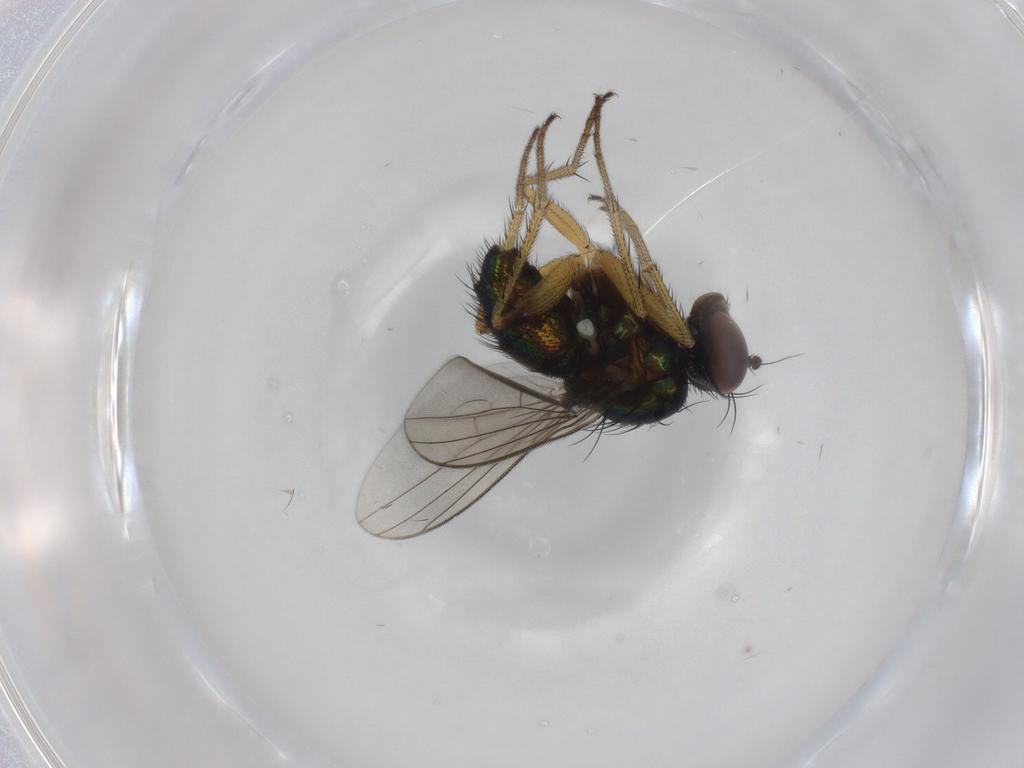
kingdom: Animalia
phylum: Arthropoda
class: Insecta
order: Diptera
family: Dolichopodidae
